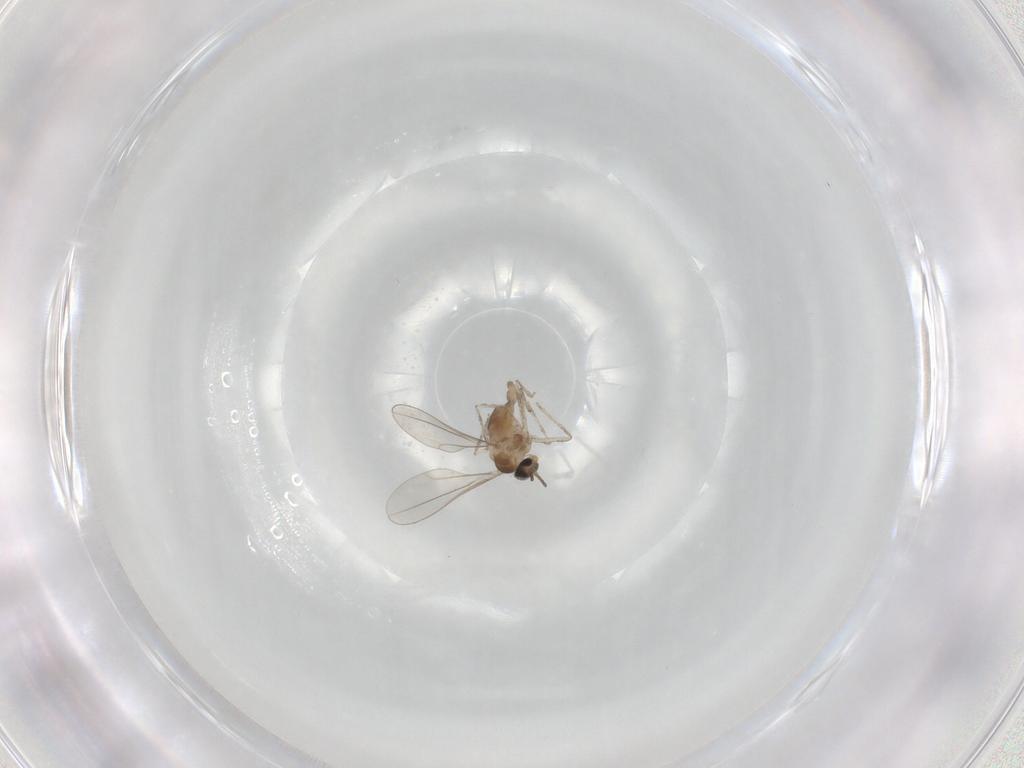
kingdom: Animalia
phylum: Arthropoda
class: Insecta
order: Diptera
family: Cecidomyiidae
